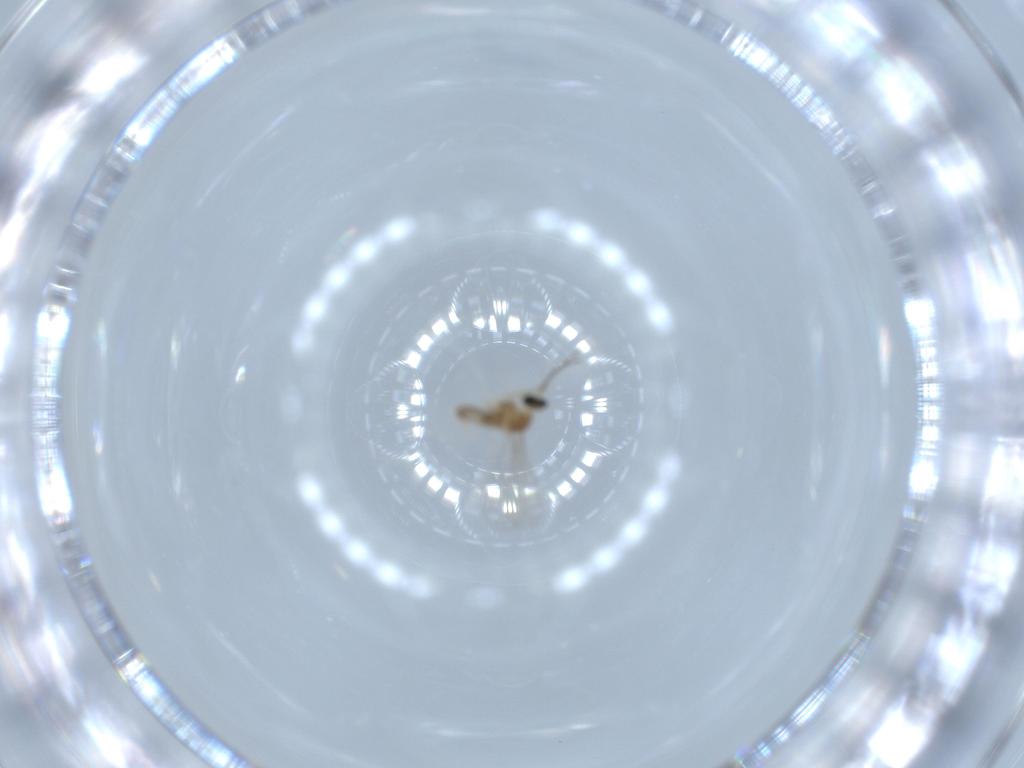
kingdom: Animalia
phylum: Arthropoda
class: Insecta
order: Diptera
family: Cecidomyiidae
